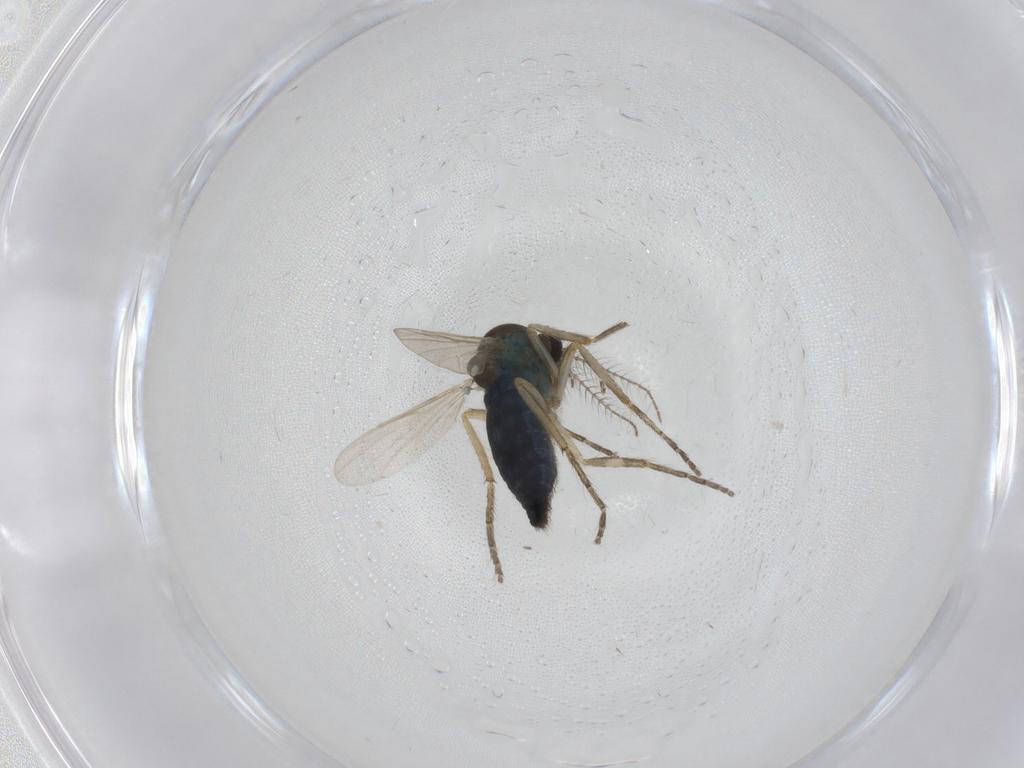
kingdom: Animalia
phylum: Arthropoda
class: Insecta
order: Diptera
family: Ceratopogonidae
